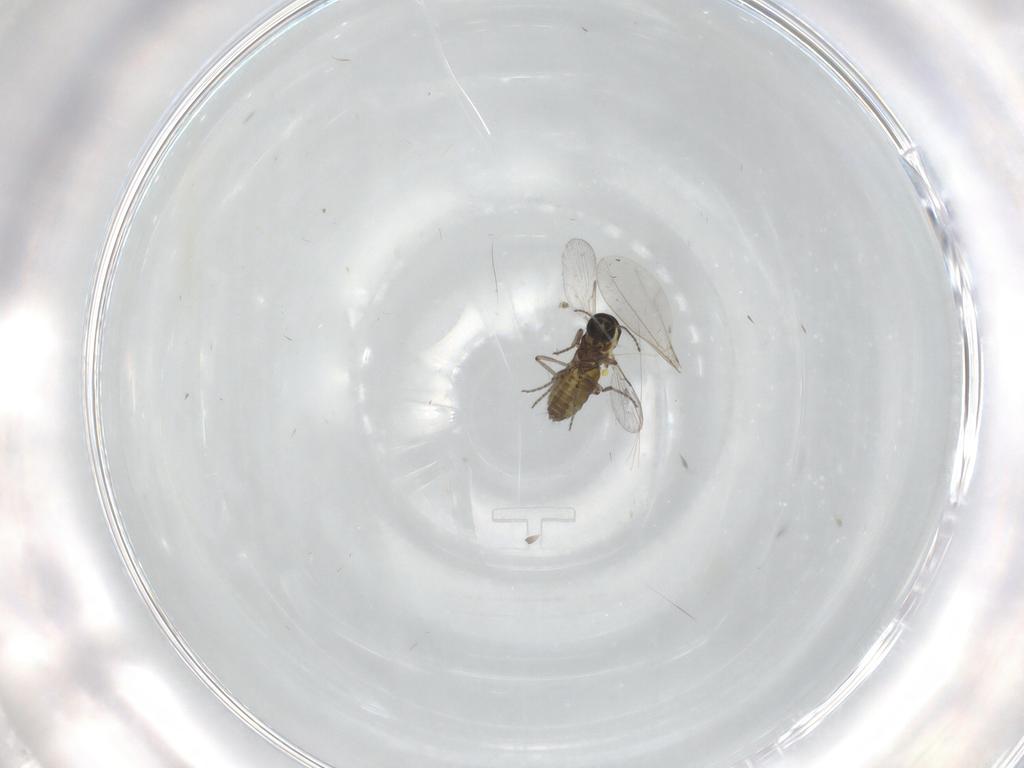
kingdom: Animalia
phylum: Arthropoda
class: Insecta
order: Diptera
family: Ceratopogonidae
